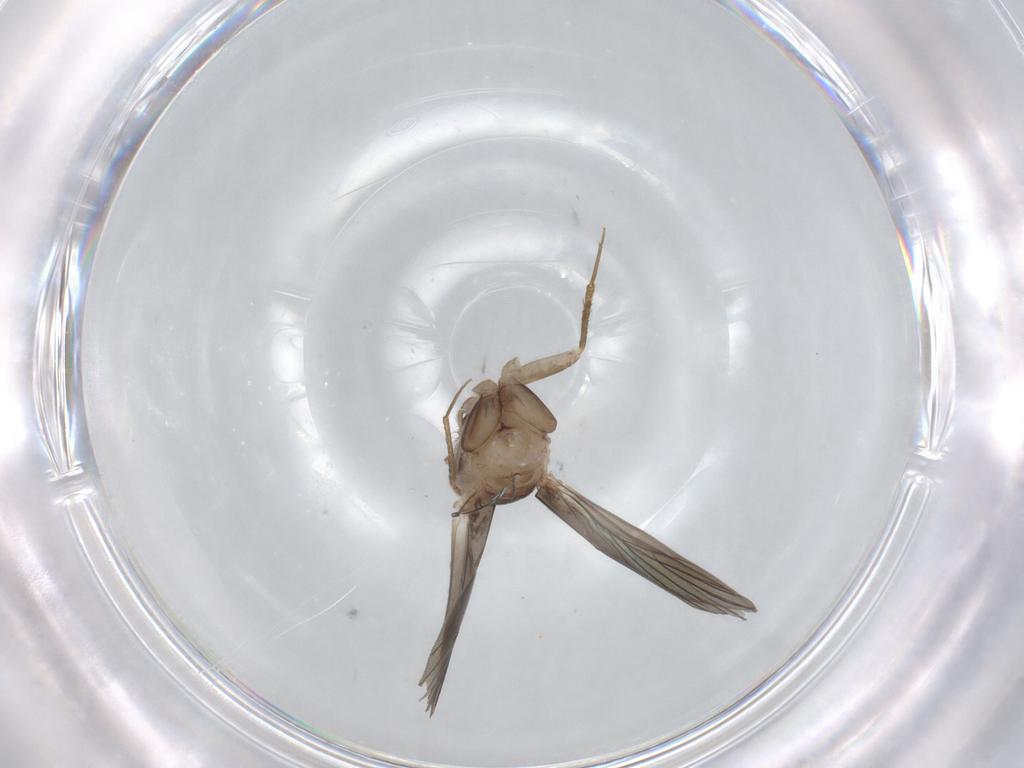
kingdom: Animalia
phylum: Arthropoda
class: Insecta
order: Psocodea
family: Lepidopsocidae
